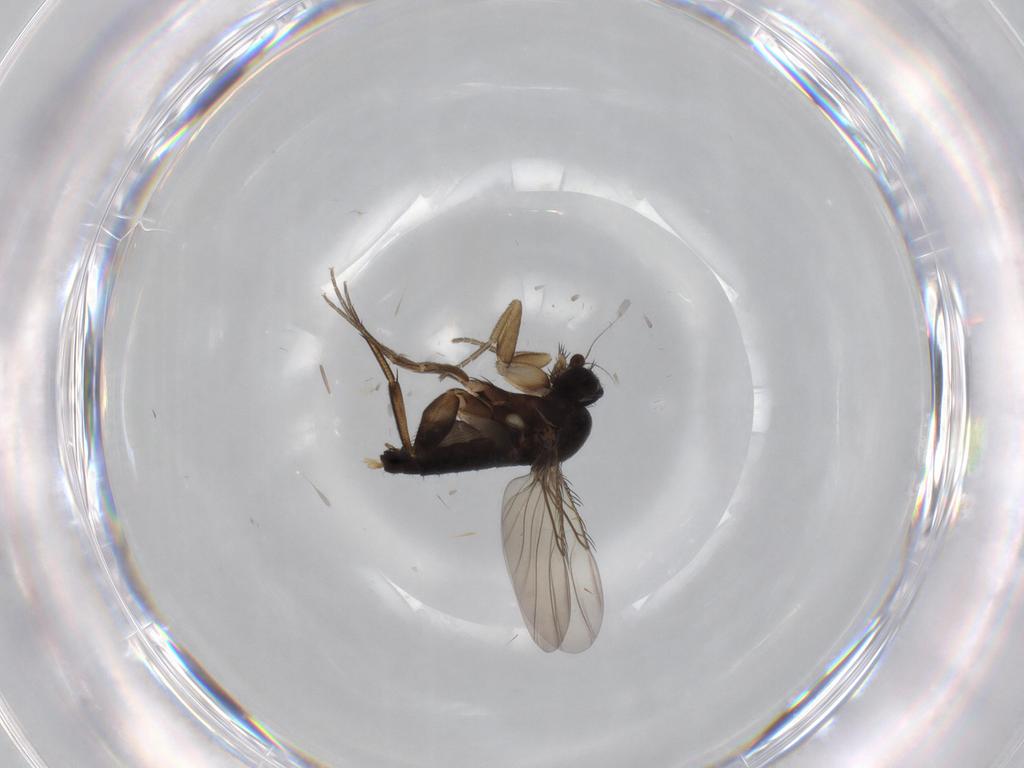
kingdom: Animalia
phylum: Arthropoda
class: Insecta
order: Diptera
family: Phoridae
